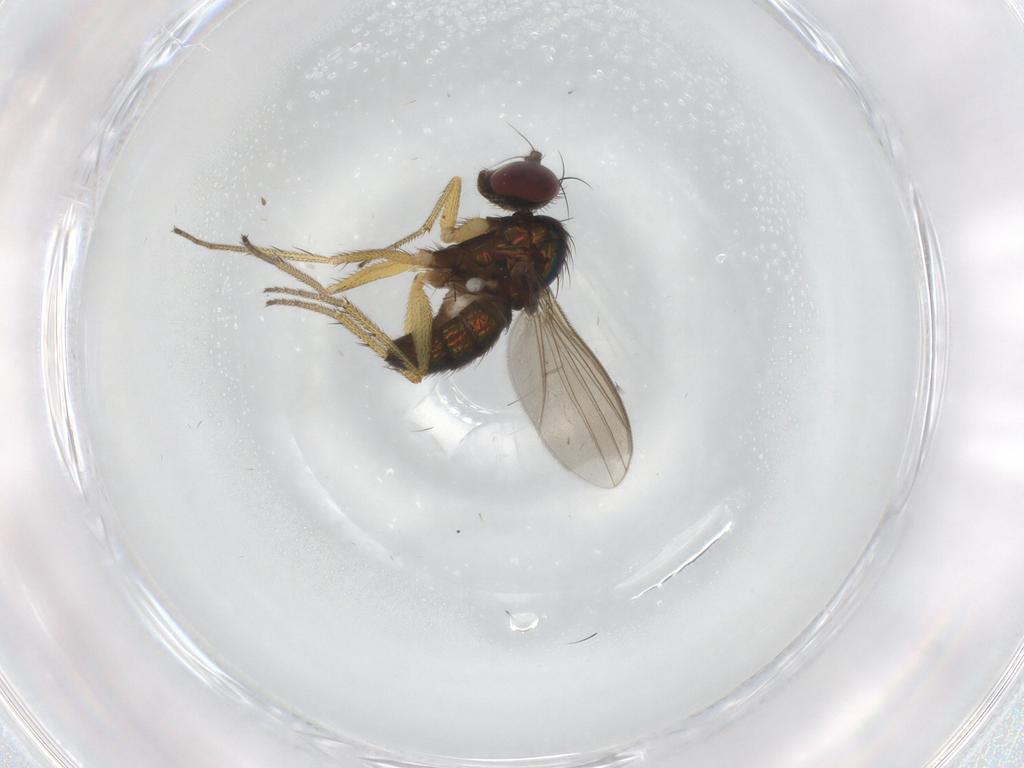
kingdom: Animalia
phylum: Arthropoda
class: Insecta
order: Diptera
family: Dolichopodidae
